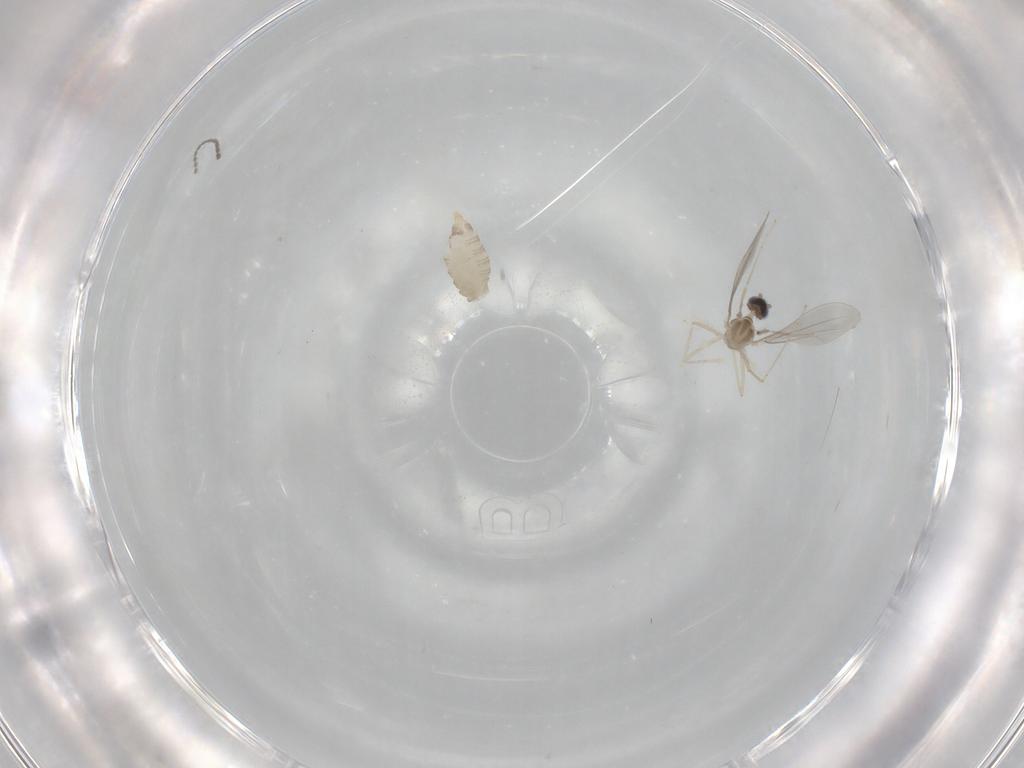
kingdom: Animalia
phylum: Arthropoda
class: Insecta
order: Diptera
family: Cecidomyiidae
